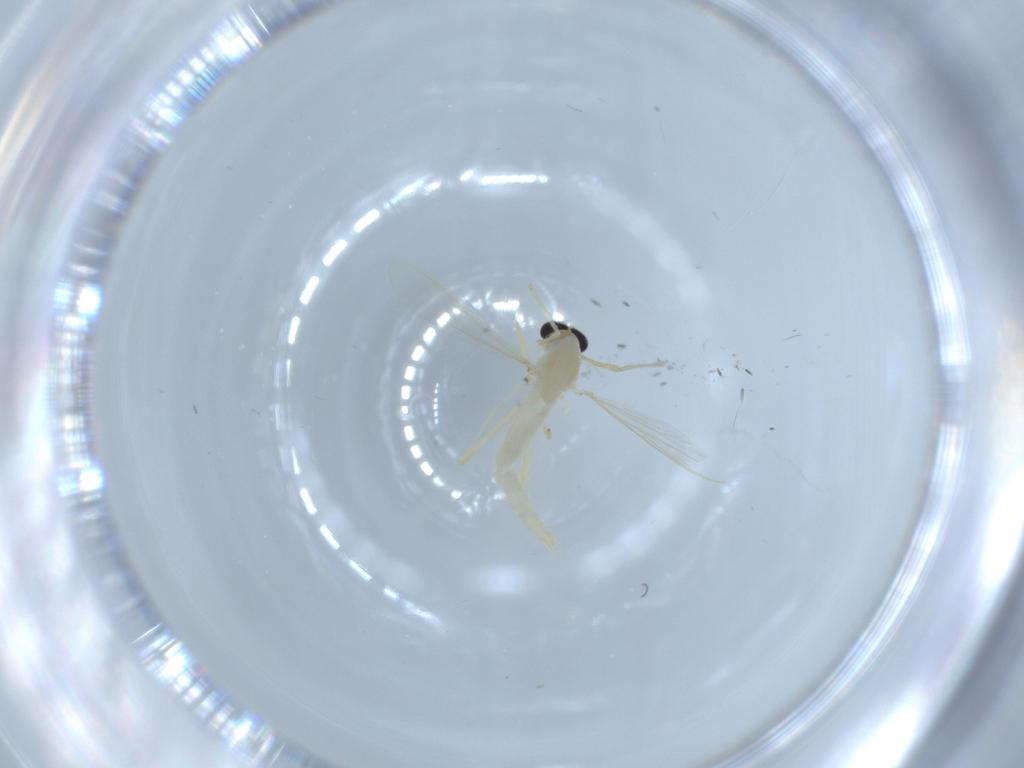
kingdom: Animalia
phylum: Arthropoda
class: Insecta
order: Diptera
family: Chironomidae
